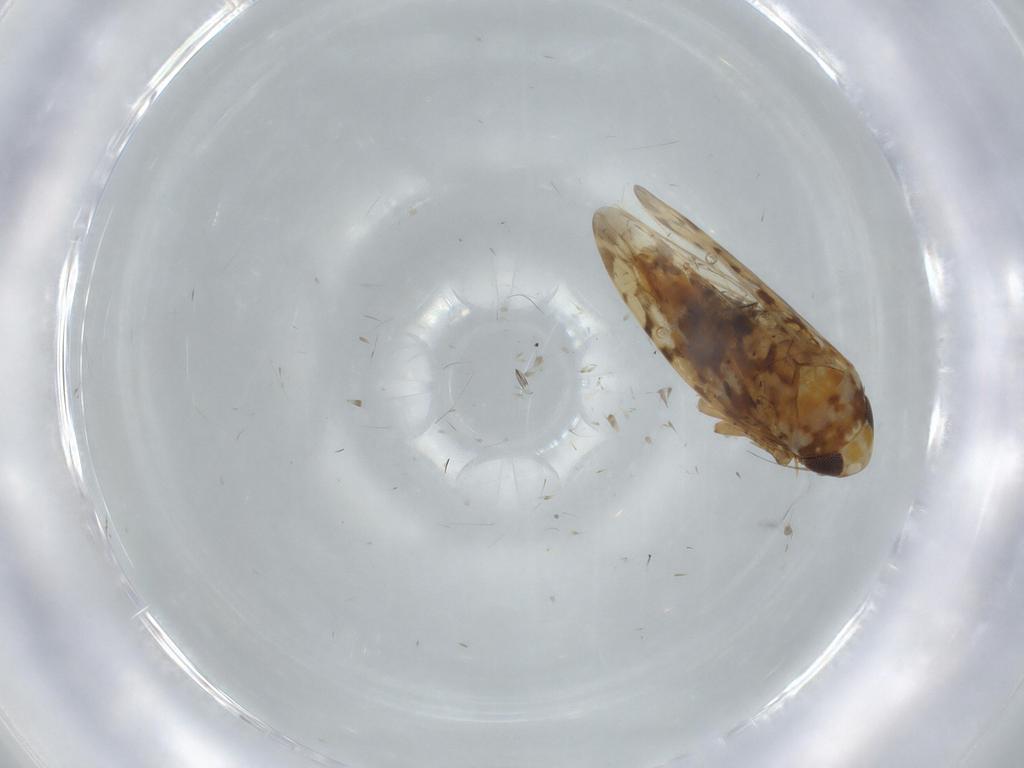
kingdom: Animalia
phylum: Arthropoda
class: Insecta
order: Hemiptera
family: Cicadellidae
